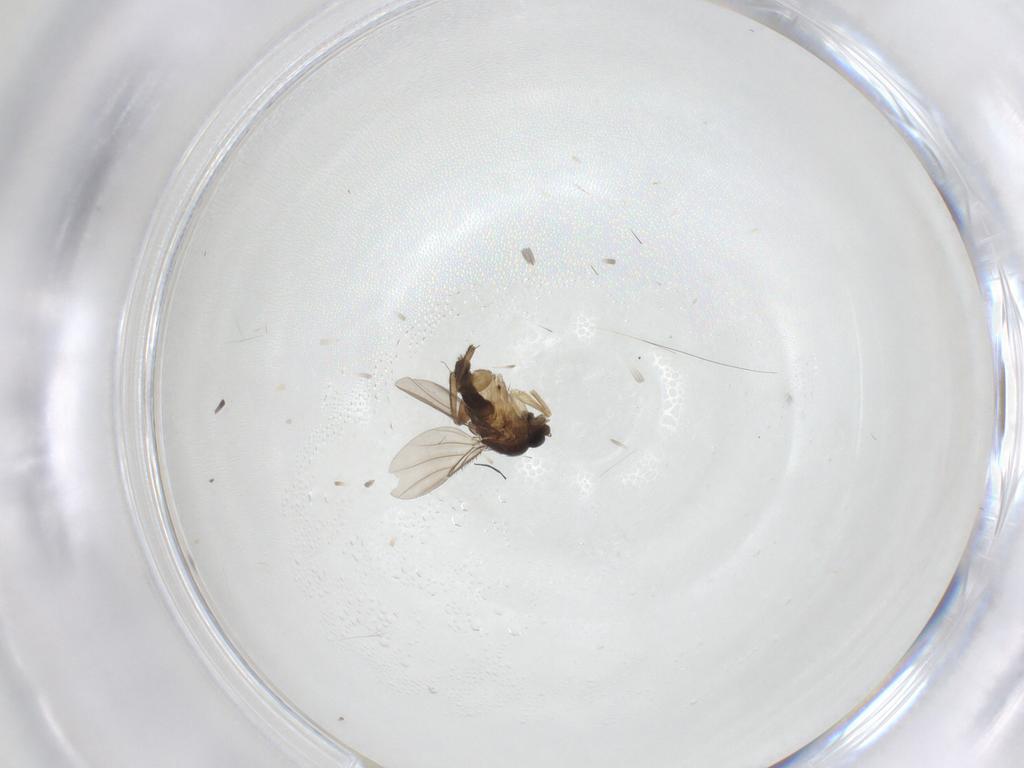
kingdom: Animalia
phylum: Arthropoda
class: Insecta
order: Diptera
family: Phoridae
